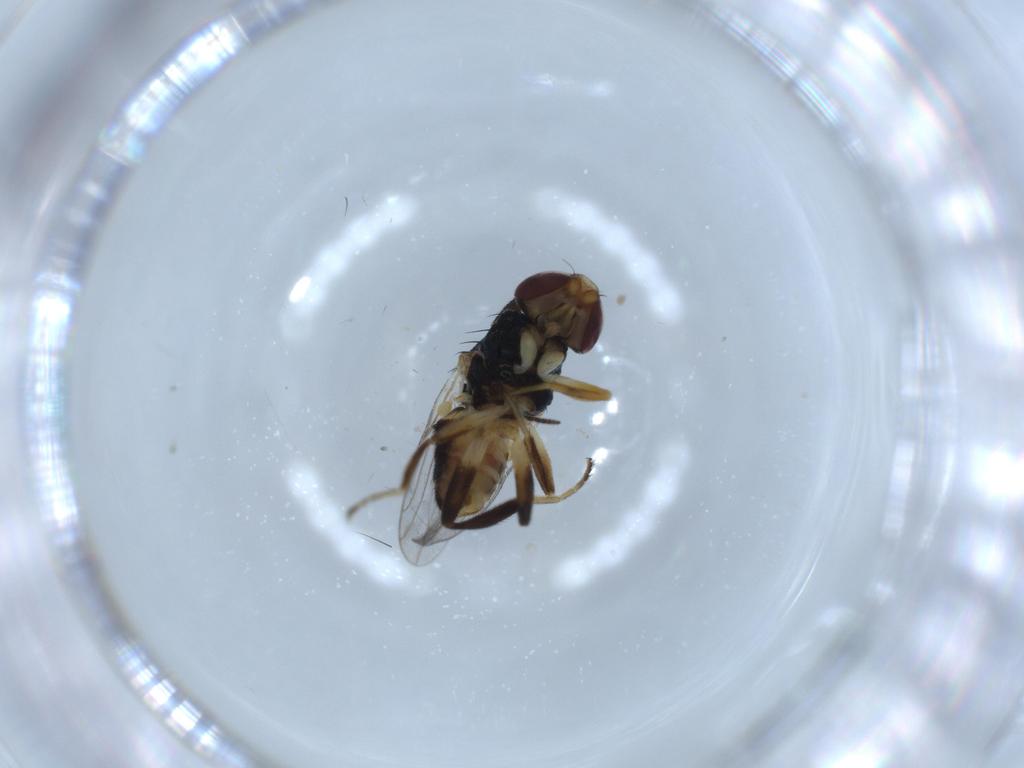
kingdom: Animalia
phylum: Arthropoda
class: Insecta
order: Diptera
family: Chloropidae
